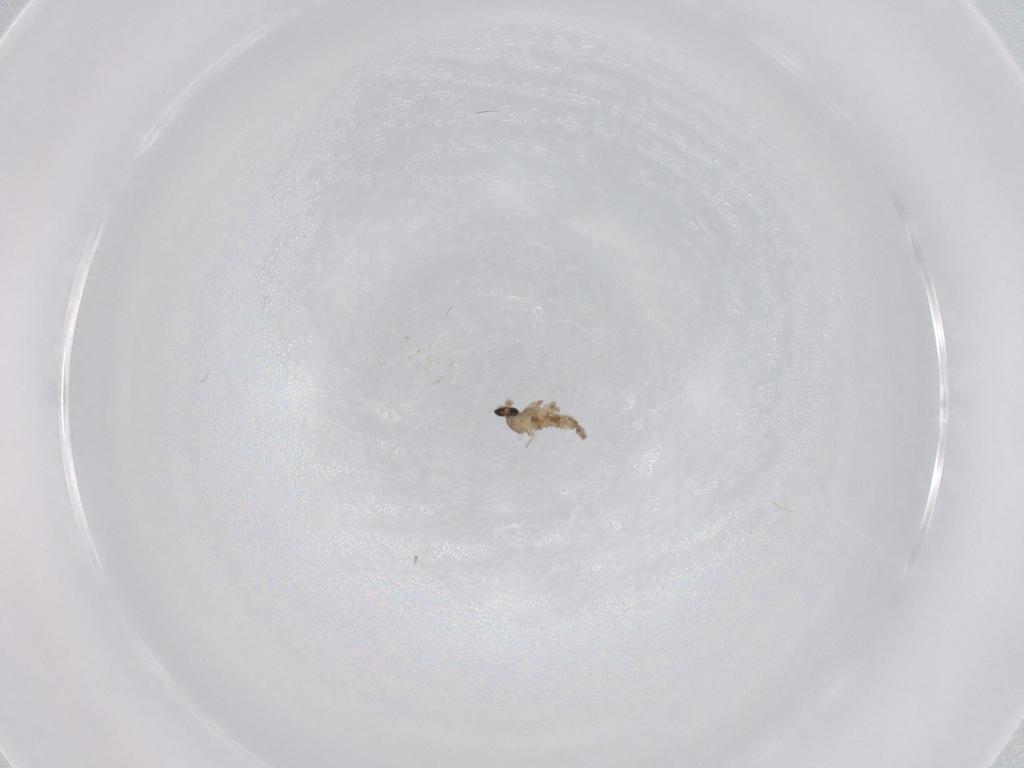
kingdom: Animalia
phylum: Arthropoda
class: Insecta
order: Diptera
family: Cecidomyiidae
